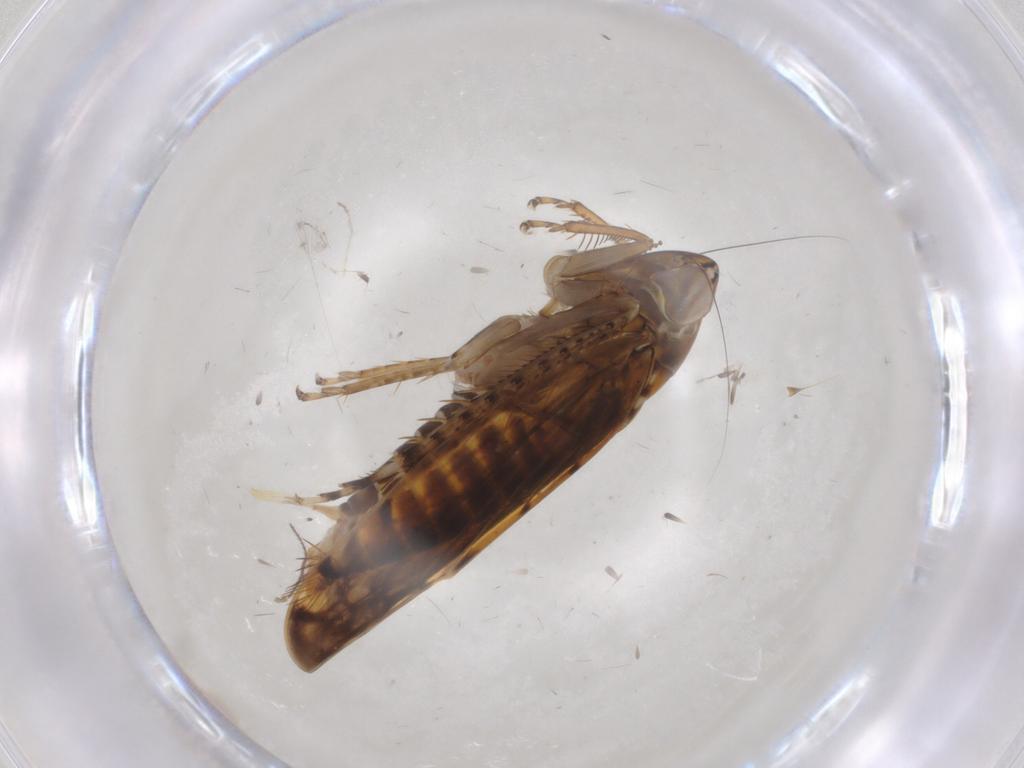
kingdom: Animalia
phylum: Arthropoda
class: Insecta
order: Hemiptera
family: Cicadellidae
